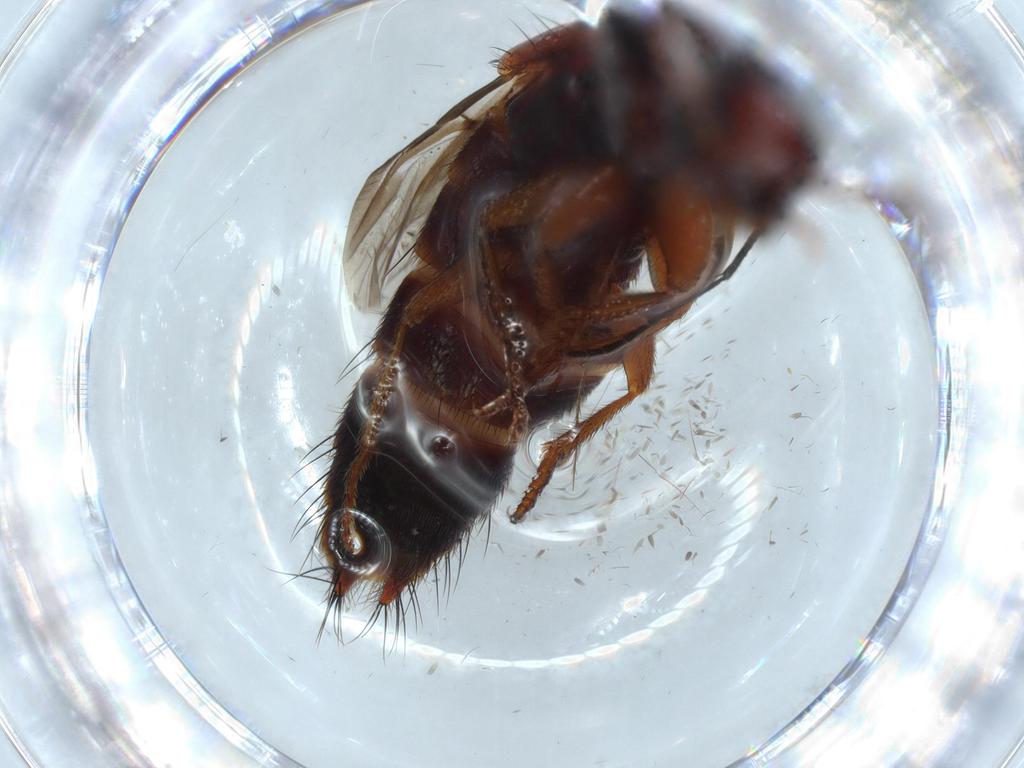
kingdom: Animalia
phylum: Arthropoda
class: Insecta
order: Coleoptera
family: Staphylinidae
